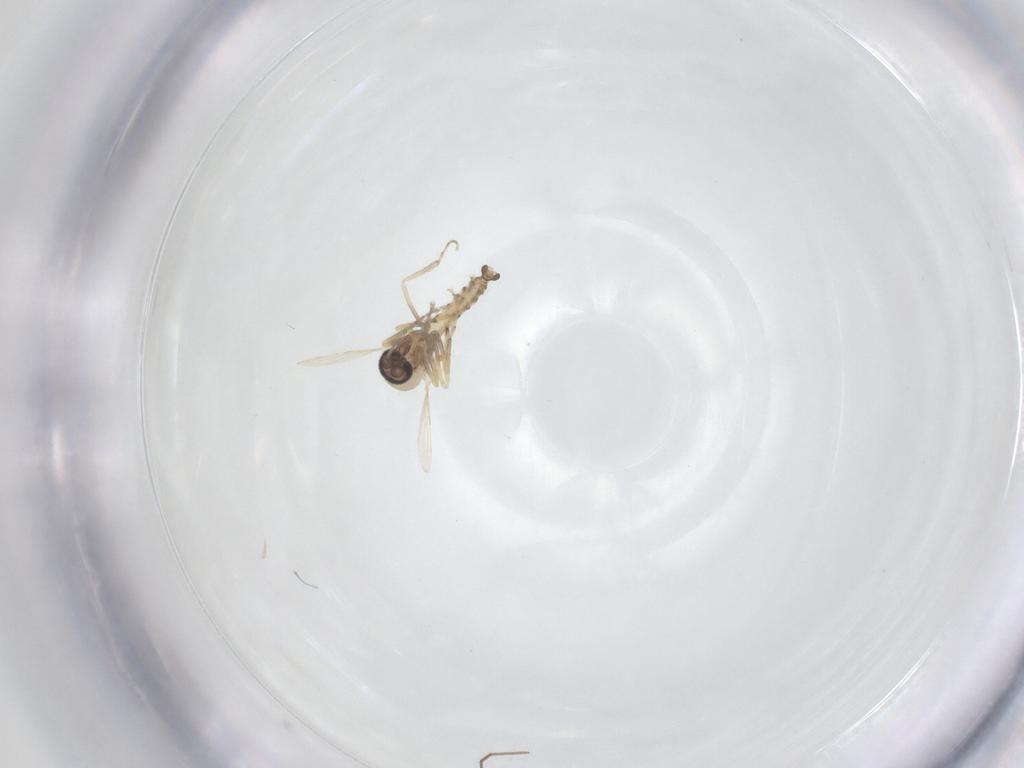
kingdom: Animalia
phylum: Arthropoda
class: Insecta
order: Diptera
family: Ceratopogonidae
